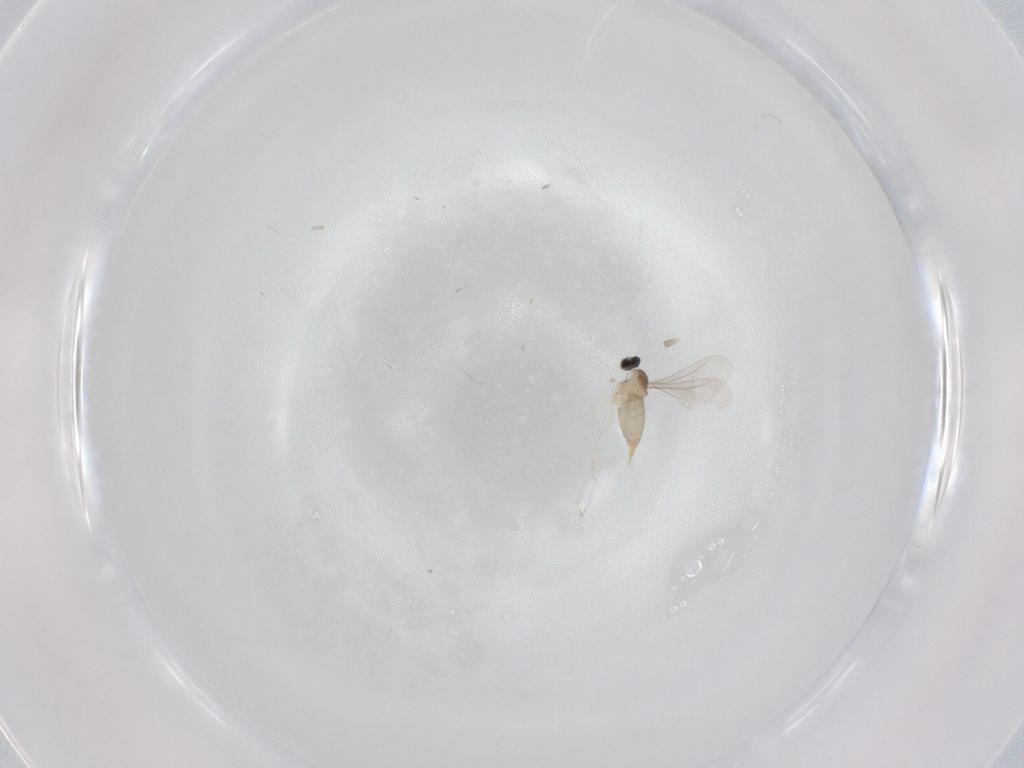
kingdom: Animalia
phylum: Arthropoda
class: Insecta
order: Diptera
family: Cecidomyiidae
